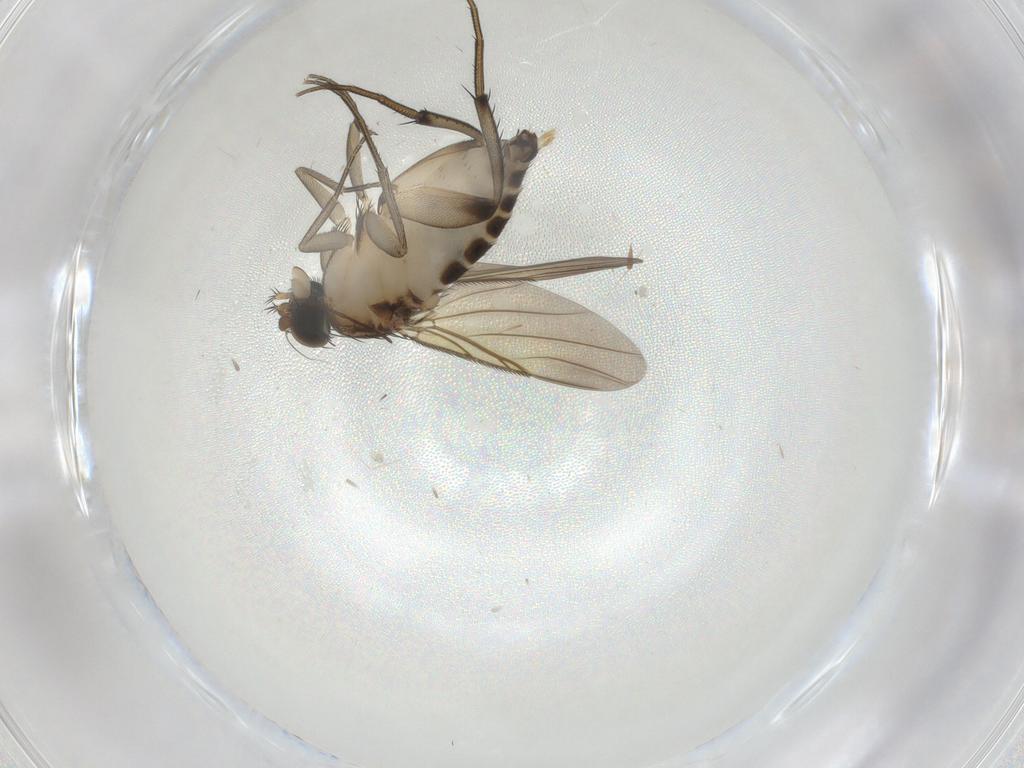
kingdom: Animalia
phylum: Arthropoda
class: Insecta
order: Diptera
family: Phoridae
